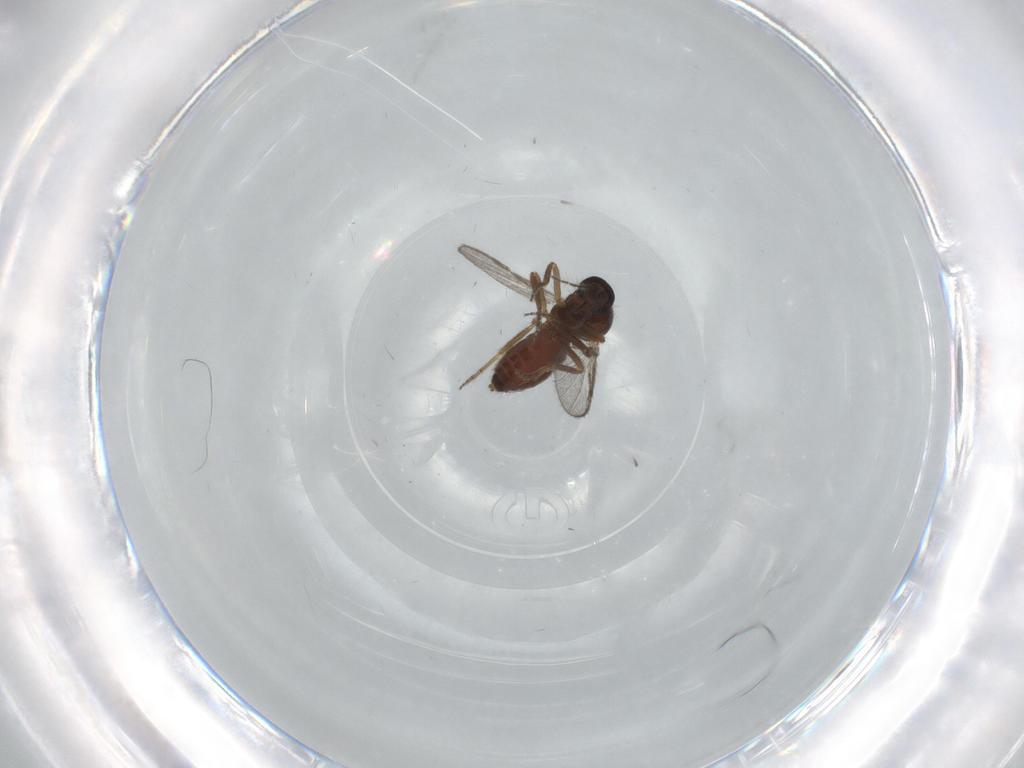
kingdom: Animalia
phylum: Arthropoda
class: Insecta
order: Diptera
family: Ceratopogonidae
